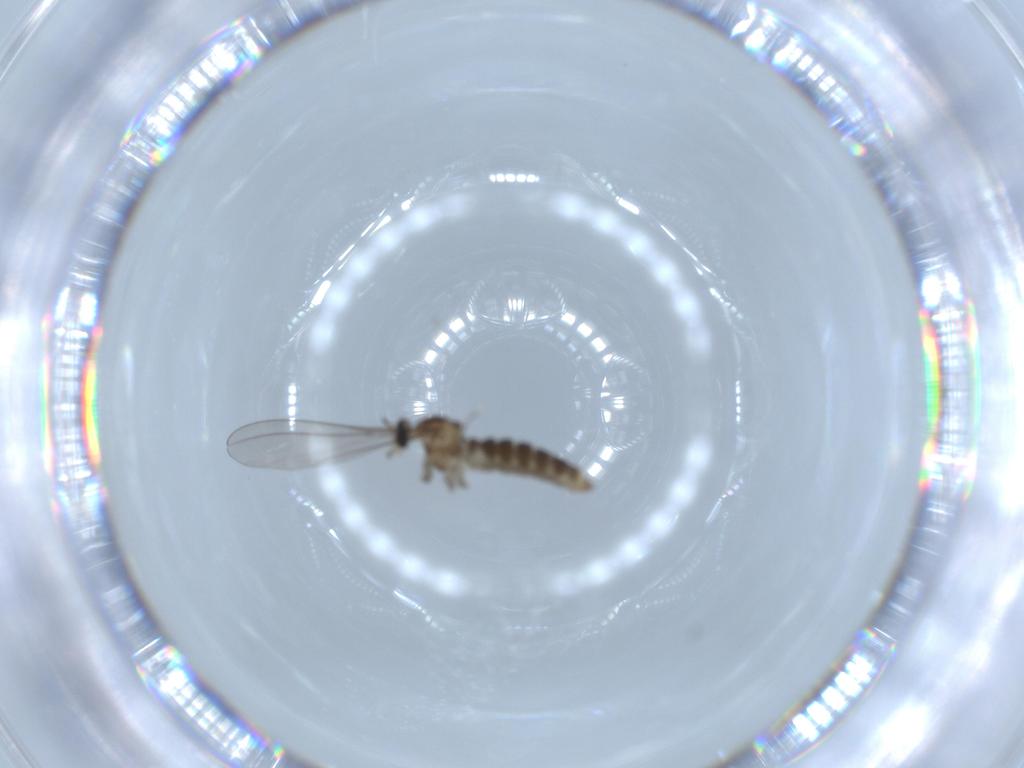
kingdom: Animalia
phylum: Arthropoda
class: Insecta
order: Diptera
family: Cecidomyiidae
